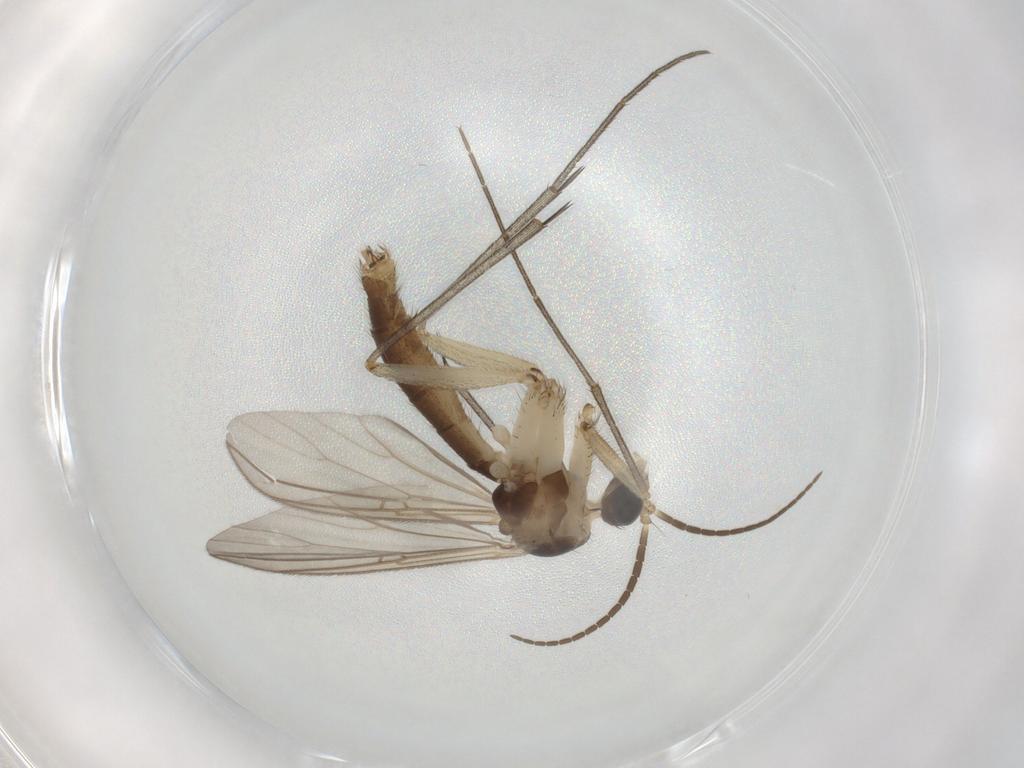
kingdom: Animalia
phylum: Arthropoda
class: Insecta
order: Diptera
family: Mycetophilidae
